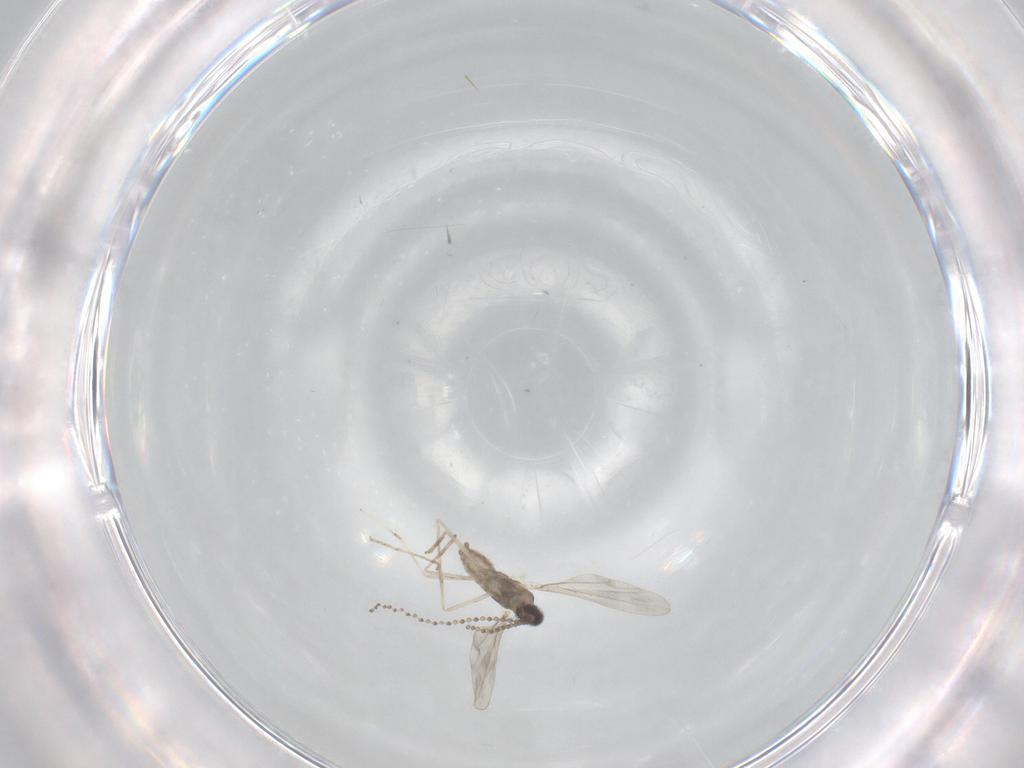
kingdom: Animalia
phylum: Arthropoda
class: Insecta
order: Diptera
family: Cecidomyiidae
